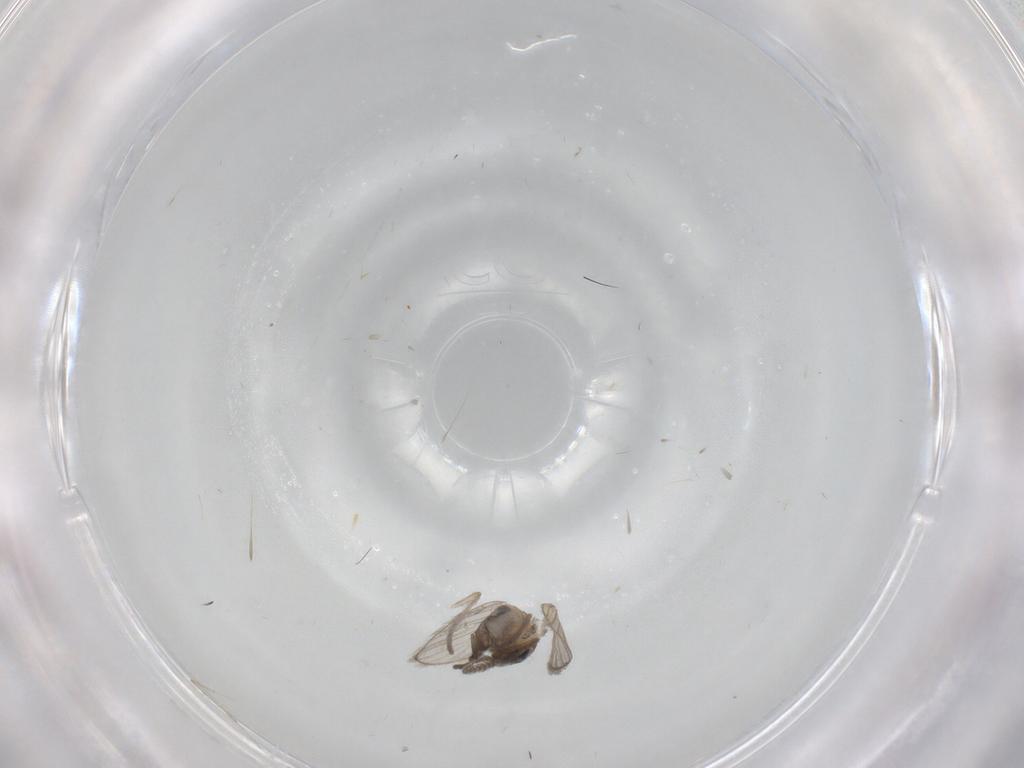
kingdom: Animalia
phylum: Arthropoda
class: Insecta
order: Diptera
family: Psychodidae
